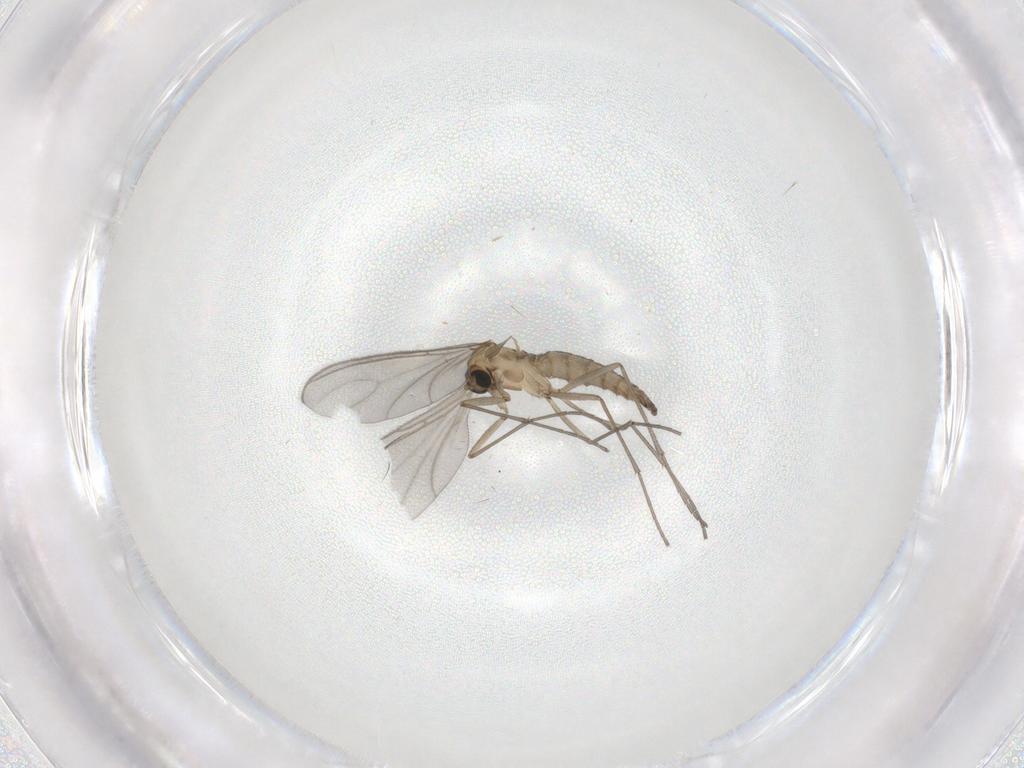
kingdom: Animalia
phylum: Arthropoda
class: Insecta
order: Diptera
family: Sciaridae
